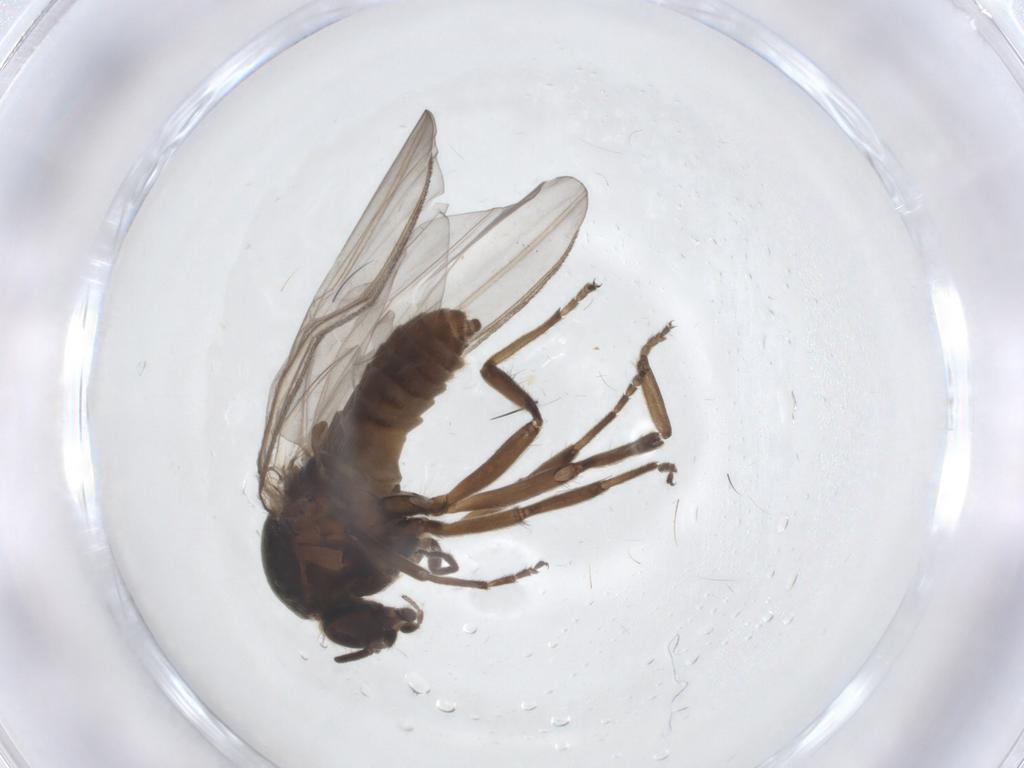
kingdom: Animalia
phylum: Arthropoda
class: Insecta
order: Diptera
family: Simuliidae
